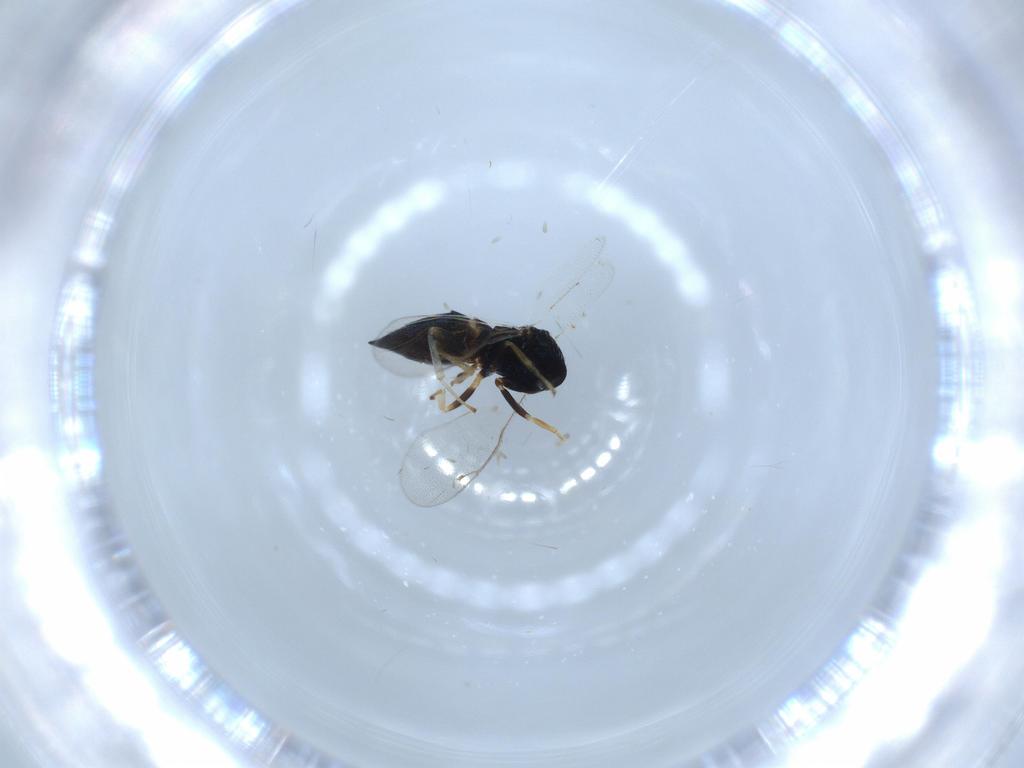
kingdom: Animalia
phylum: Arthropoda
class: Insecta
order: Hymenoptera
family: Pteromalidae
